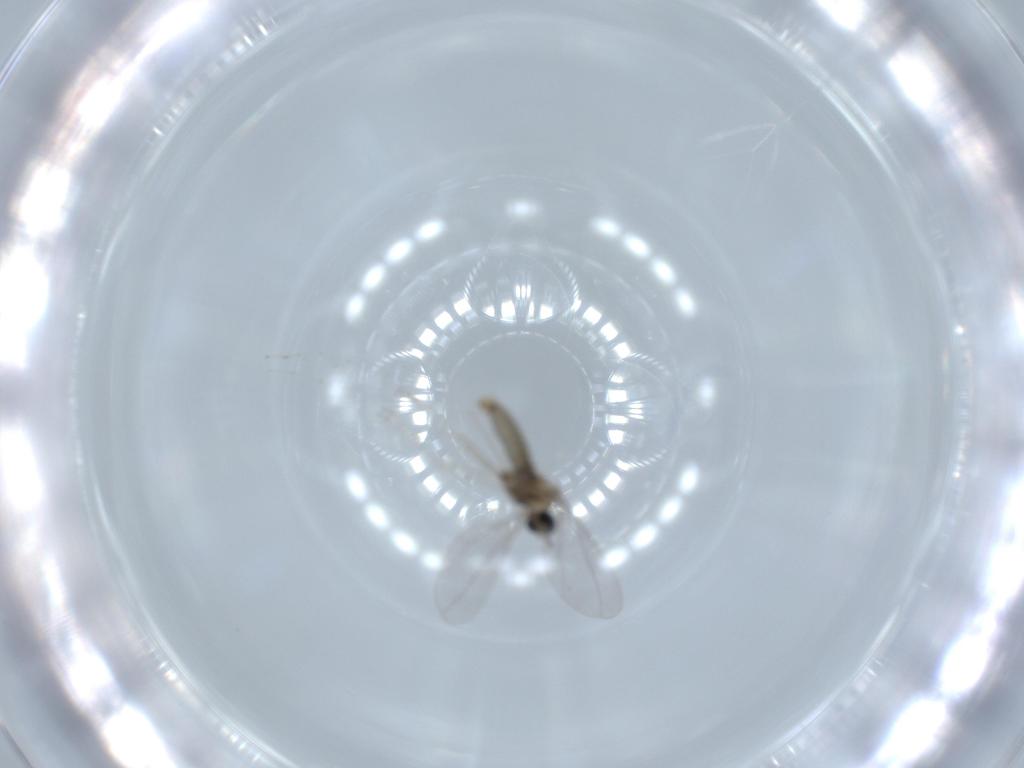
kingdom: Animalia
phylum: Arthropoda
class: Insecta
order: Diptera
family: Cecidomyiidae
